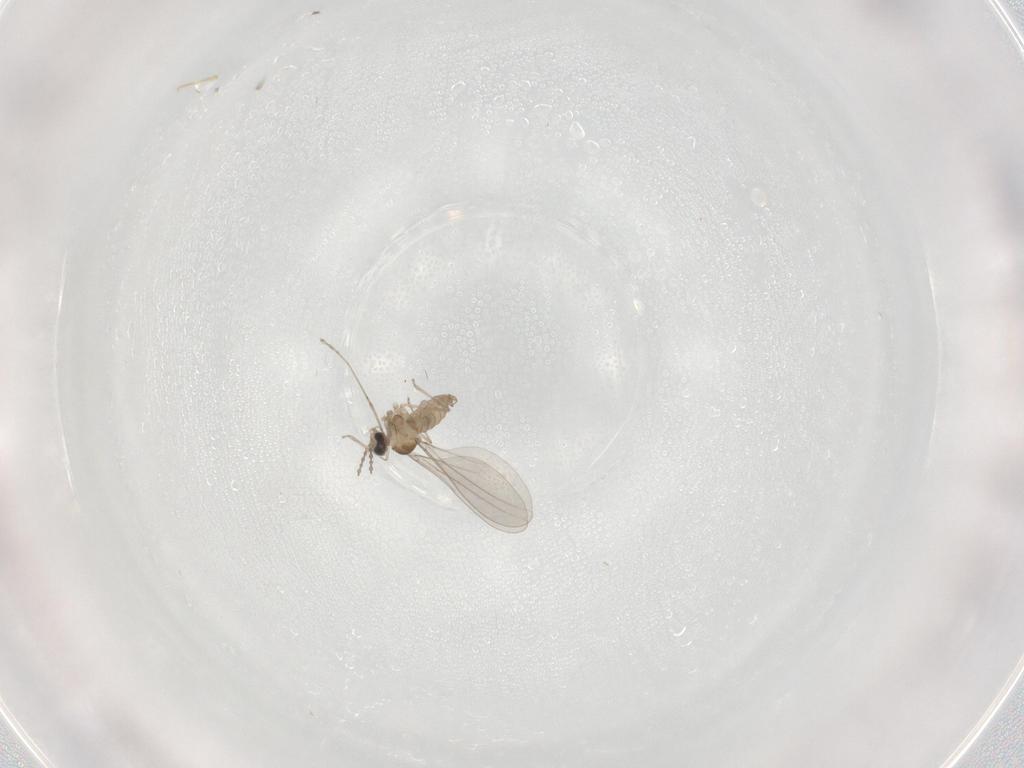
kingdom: Animalia
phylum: Arthropoda
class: Insecta
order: Diptera
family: Cecidomyiidae
